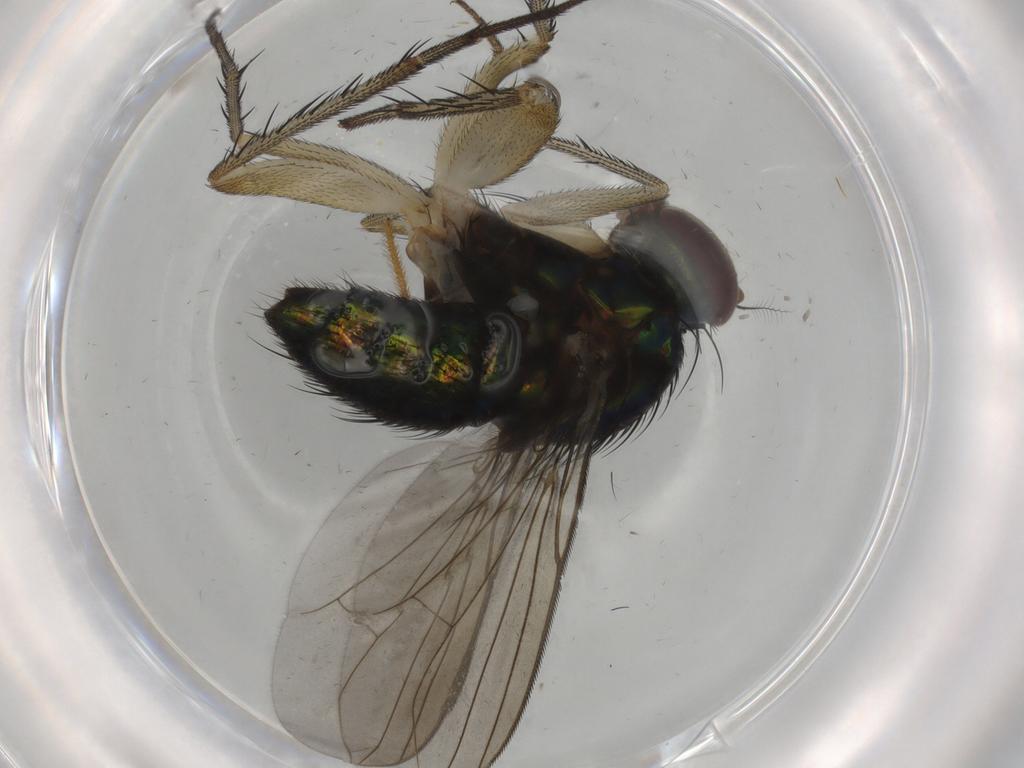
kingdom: Animalia
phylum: Arthropoda
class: Insecta
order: Diptera
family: Dolichopodidae
